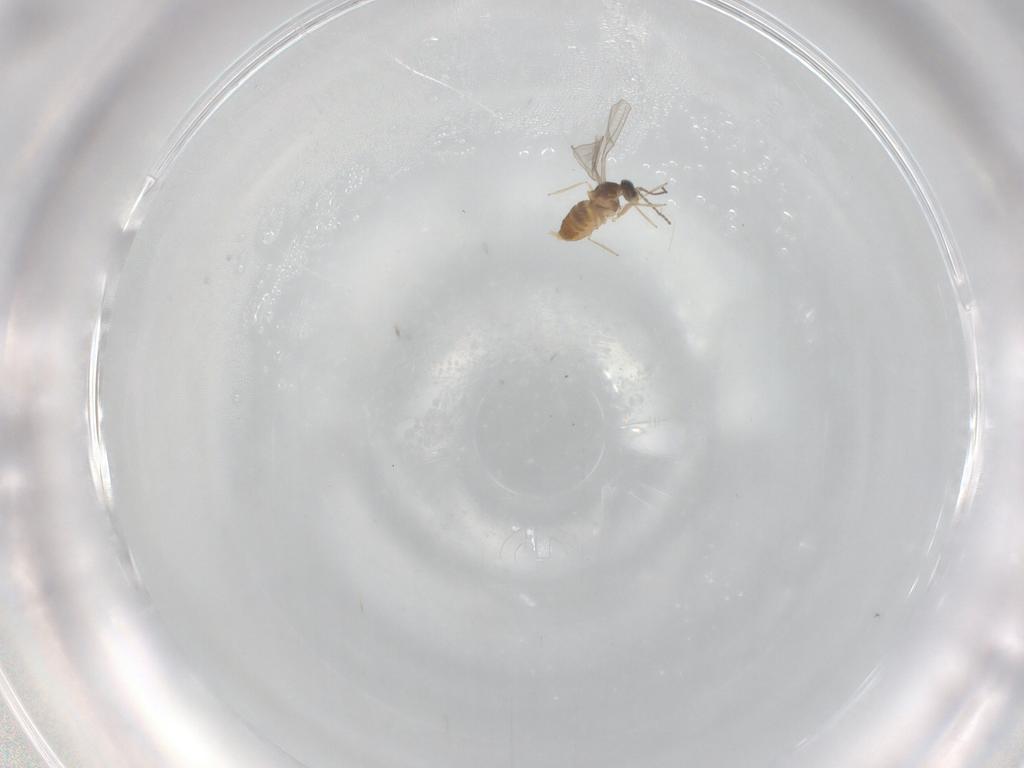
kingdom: Animalia
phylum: Arthropoda
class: Insecta
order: Diptera
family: Cecidomyiidae
